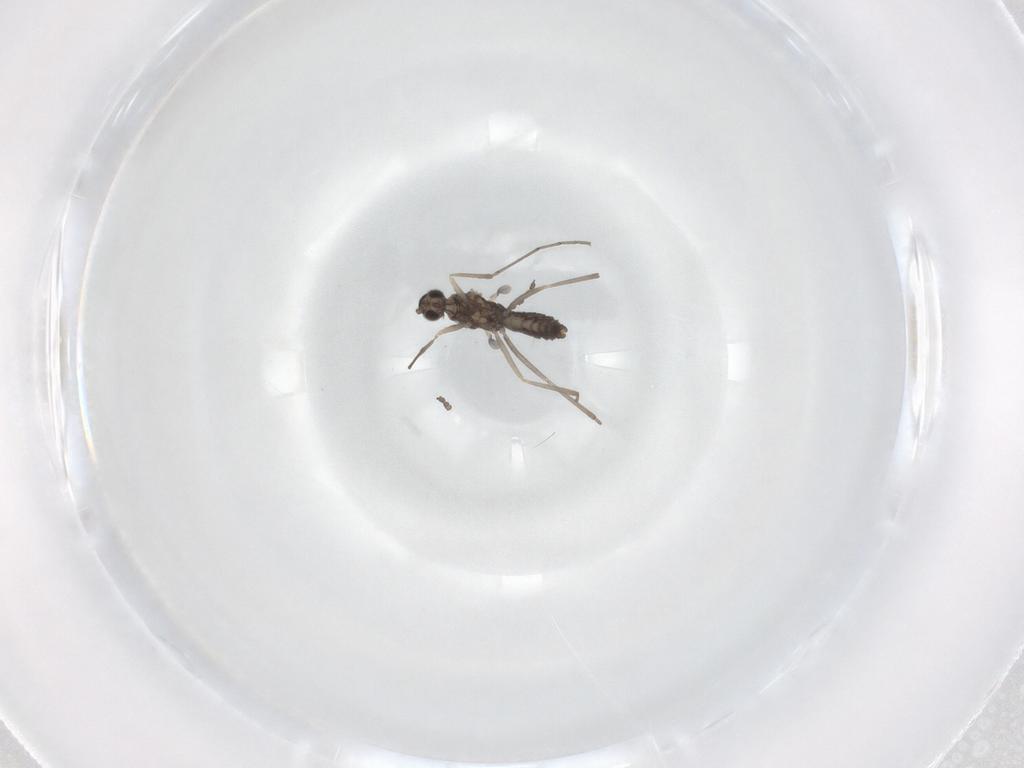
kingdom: Animalia
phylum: Arthropoda
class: Insecta
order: Diptera
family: Cecidomyiidae
